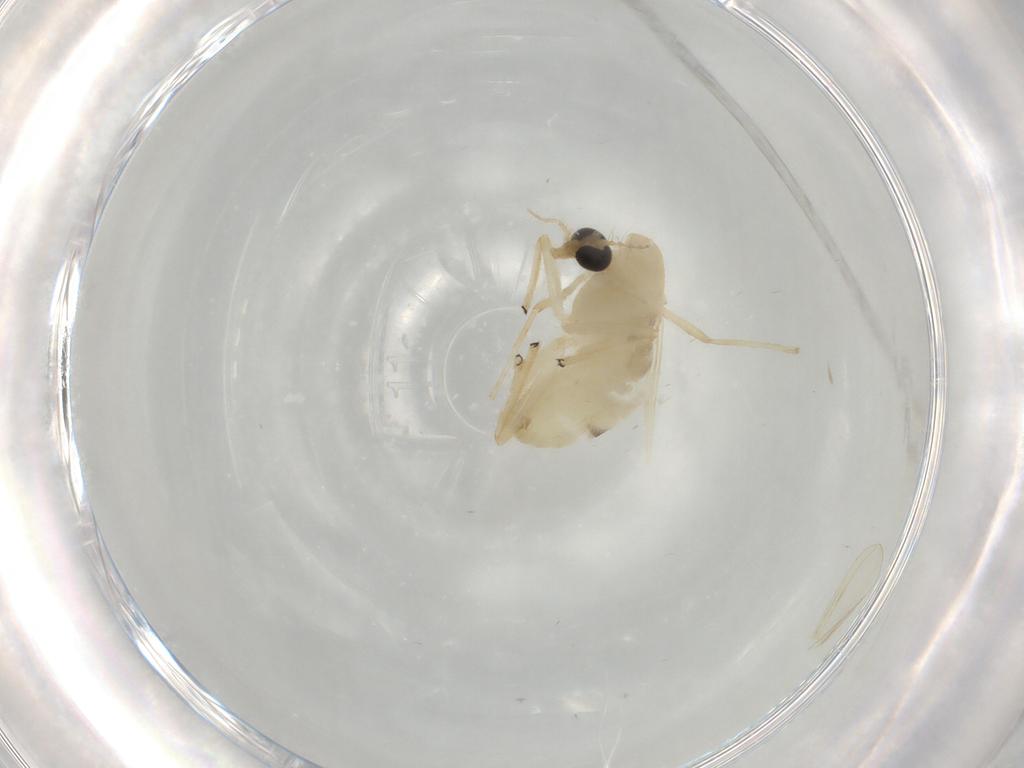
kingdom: Animalia
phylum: Arthropoda
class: Insecta
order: Diptera
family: Chironomidae
